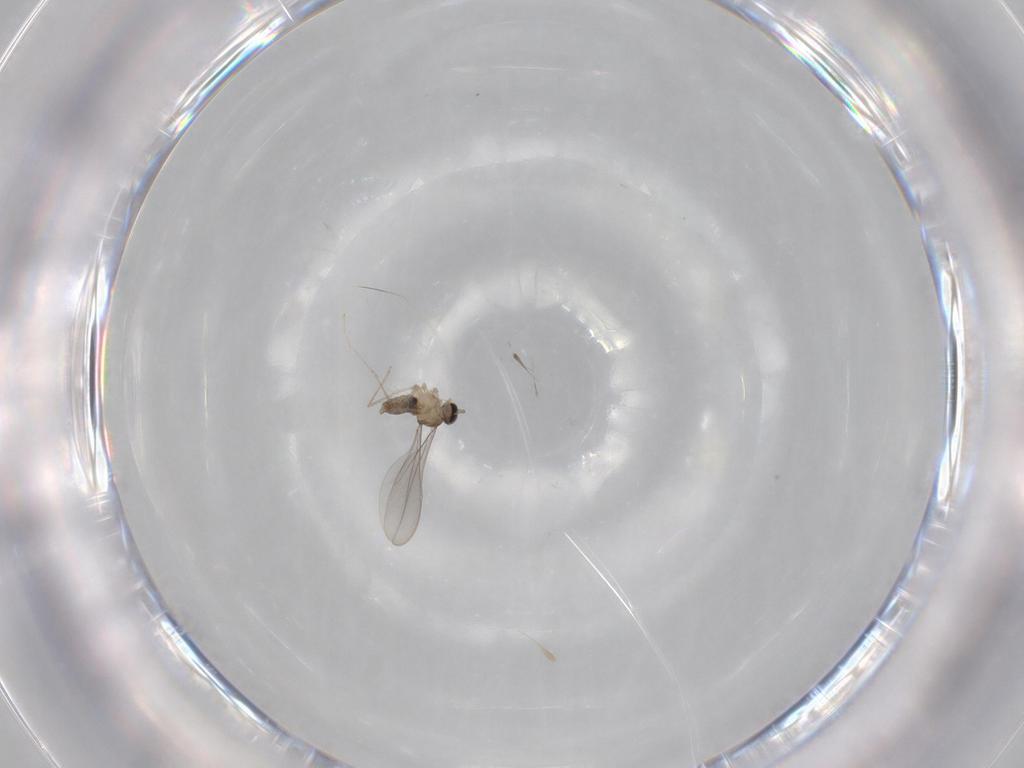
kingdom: Animalia
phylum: Arthropoda
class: Insecta
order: Diptera
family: Cecidomyiidae
